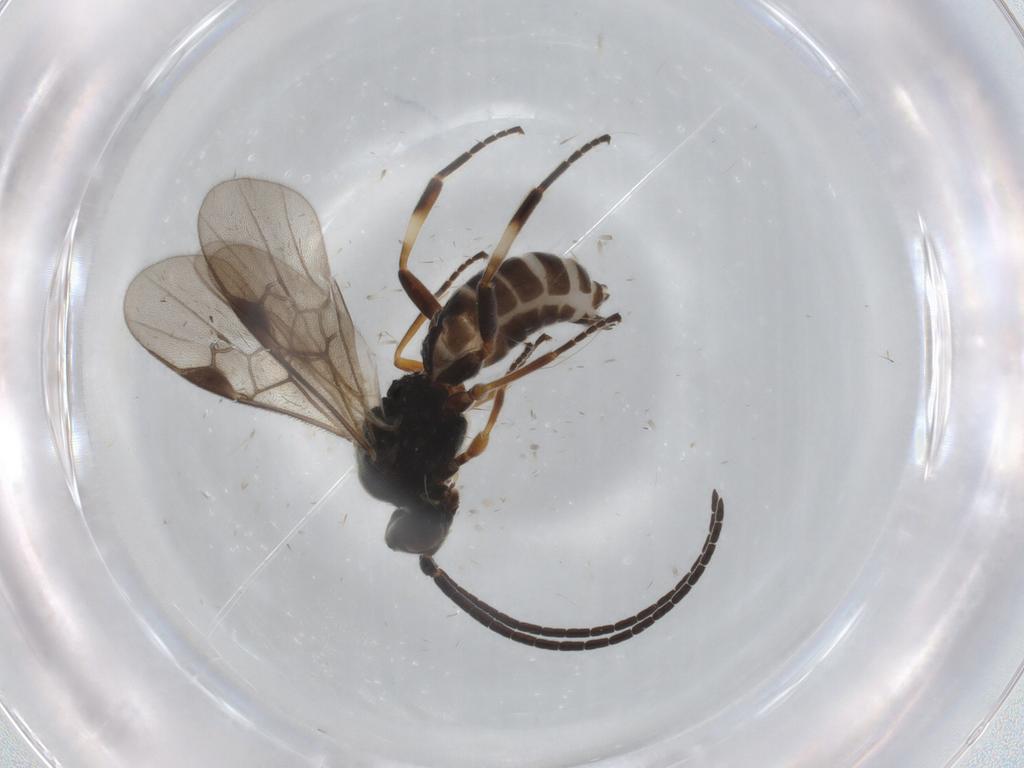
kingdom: Animalia
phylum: Arthropoda
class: Insecta
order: Hymenoptera
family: Braconidae
